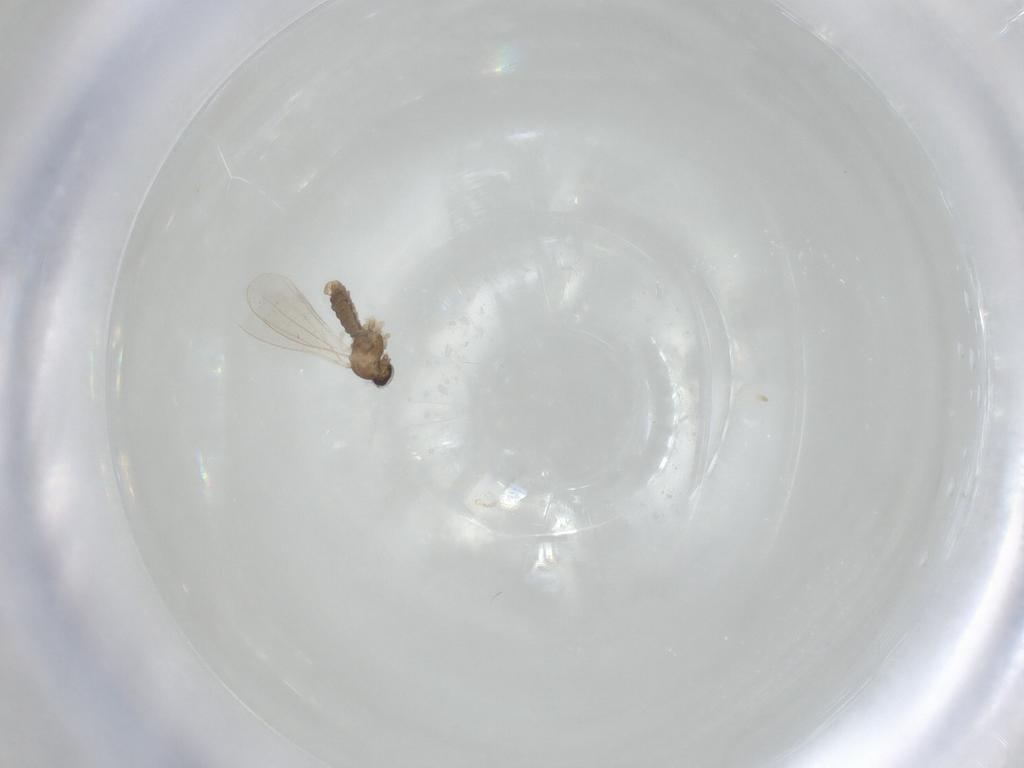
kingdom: Animalia
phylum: Arthropoda
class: Insecta
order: Diptera
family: Cecidomyiidae
